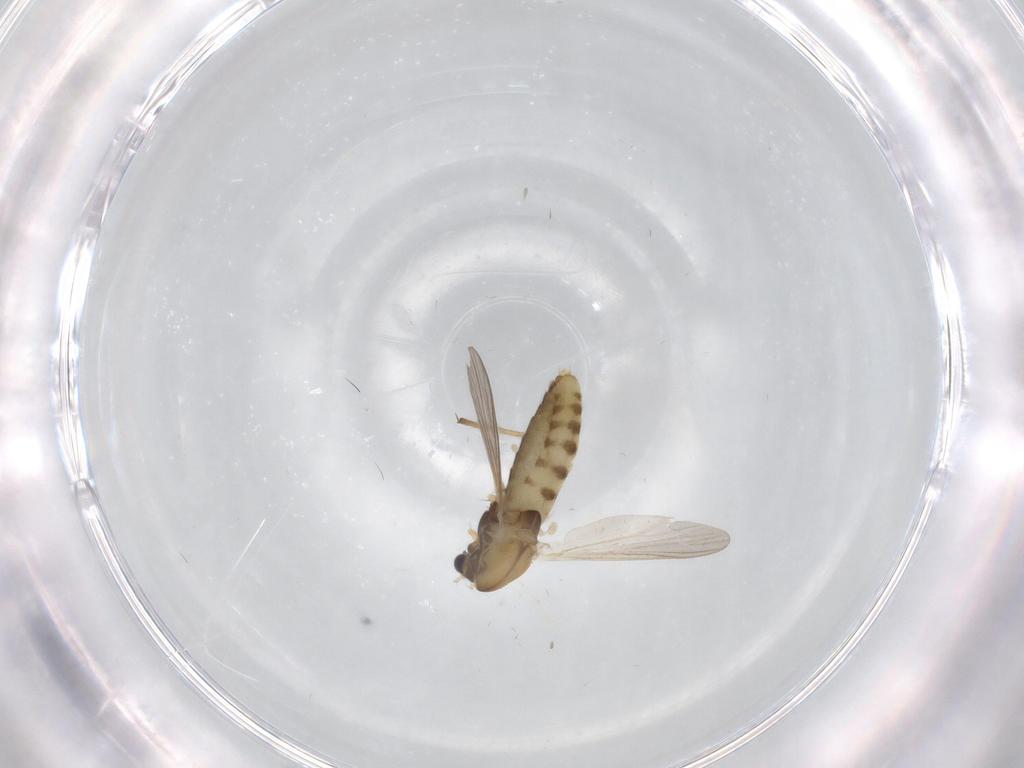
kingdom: Animalia
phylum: Arthropoda
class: Insecta
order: Diptera
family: Chironomidae
